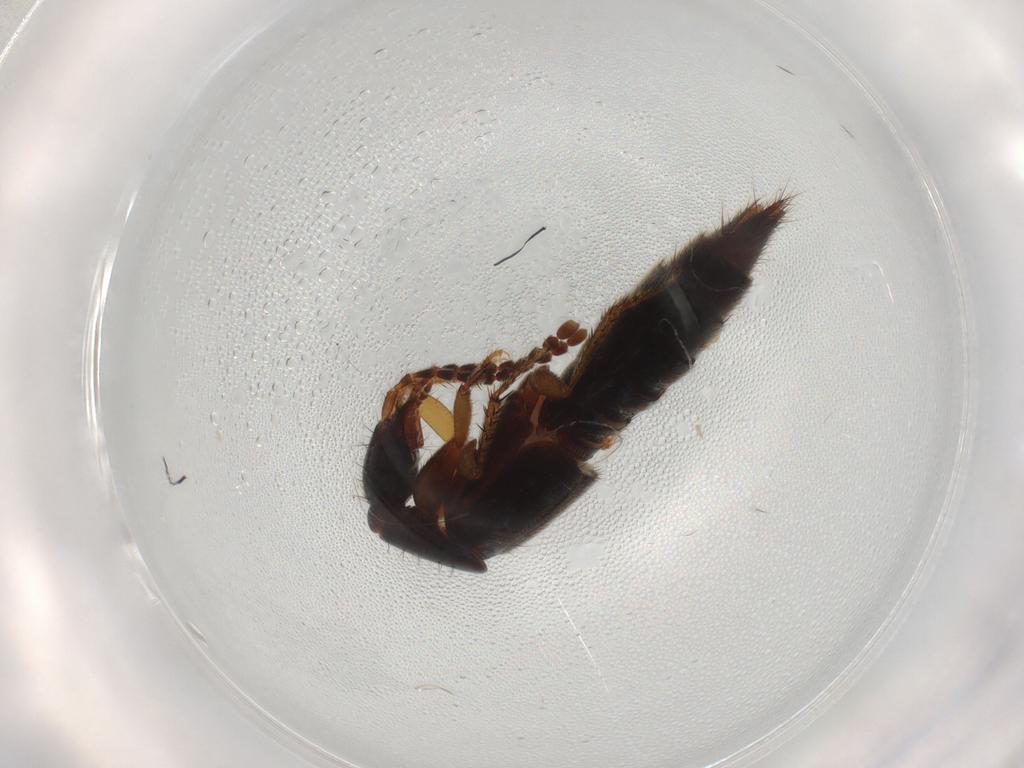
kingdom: Animalia
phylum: Arthropoda
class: Insecta
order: Coleoptera
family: Staphylinidae
